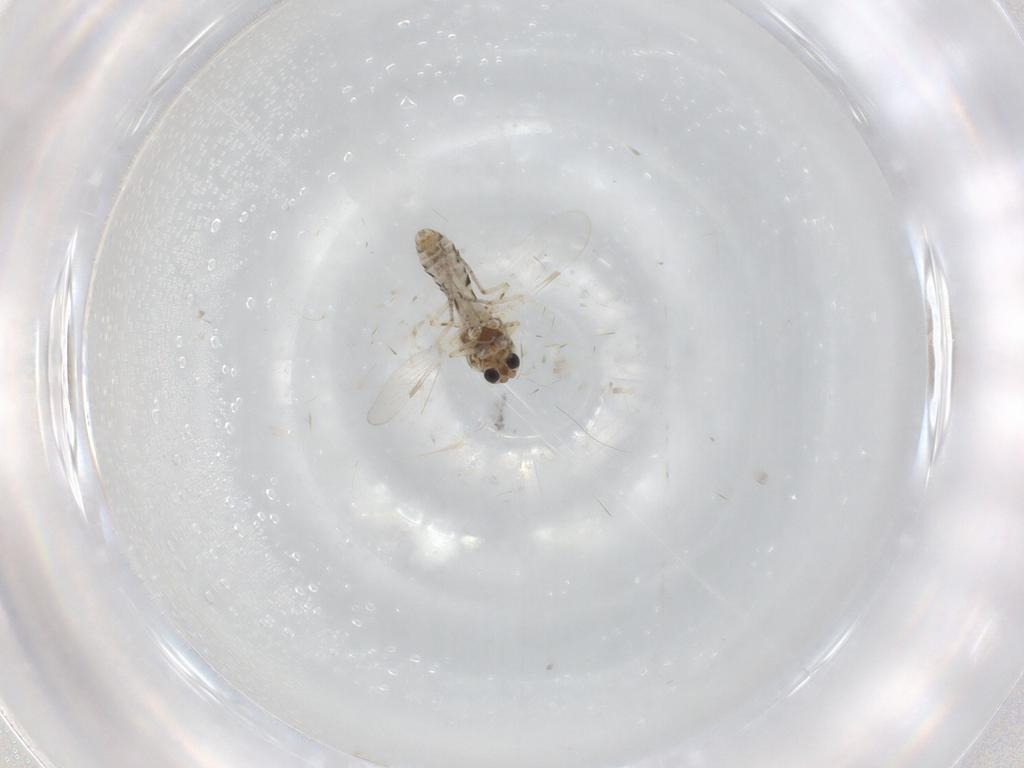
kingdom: Animalia
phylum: Arthropoda
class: Insecta
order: Diptera
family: Ceratopogonidae
